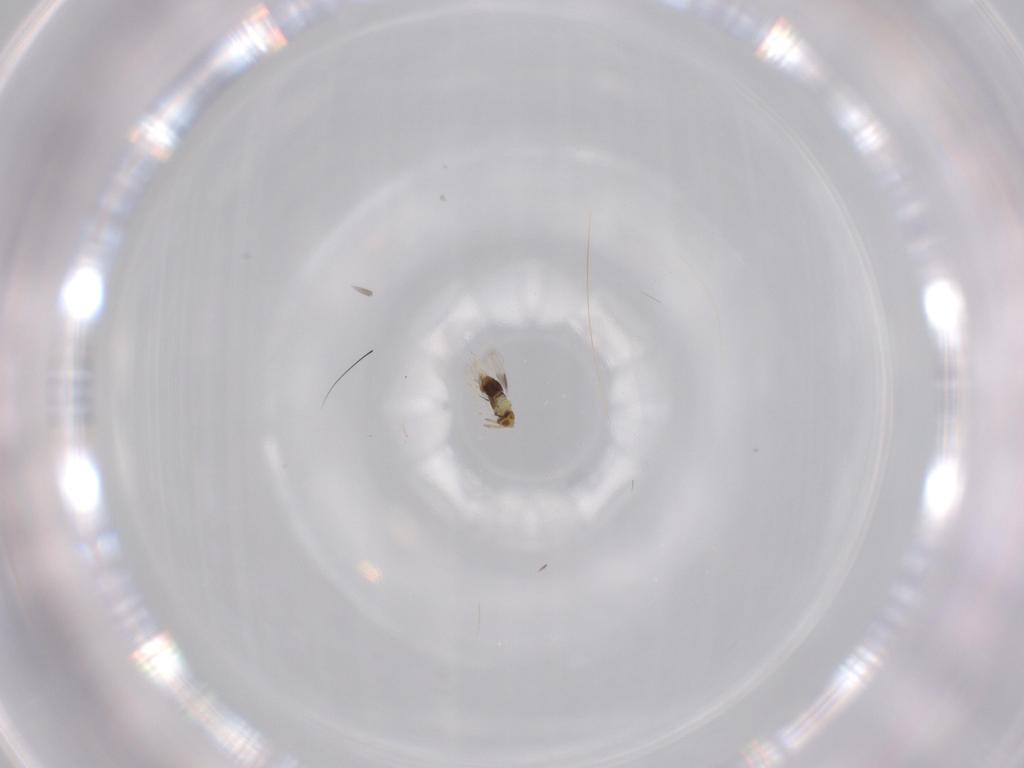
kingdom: Animalia
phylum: Arthropoda
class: Insecta
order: Hymenoptera
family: Aphelinidae
